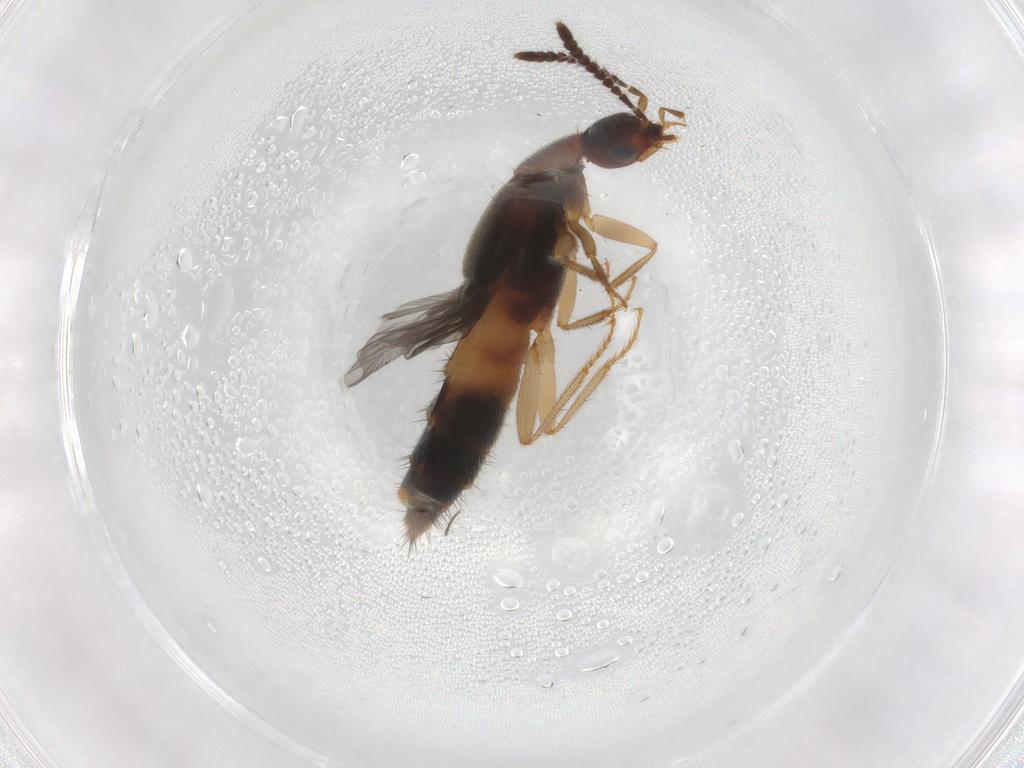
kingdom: Animalia
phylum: Arthropoda
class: Insecta
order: Coleoptera
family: Staphylinidae
